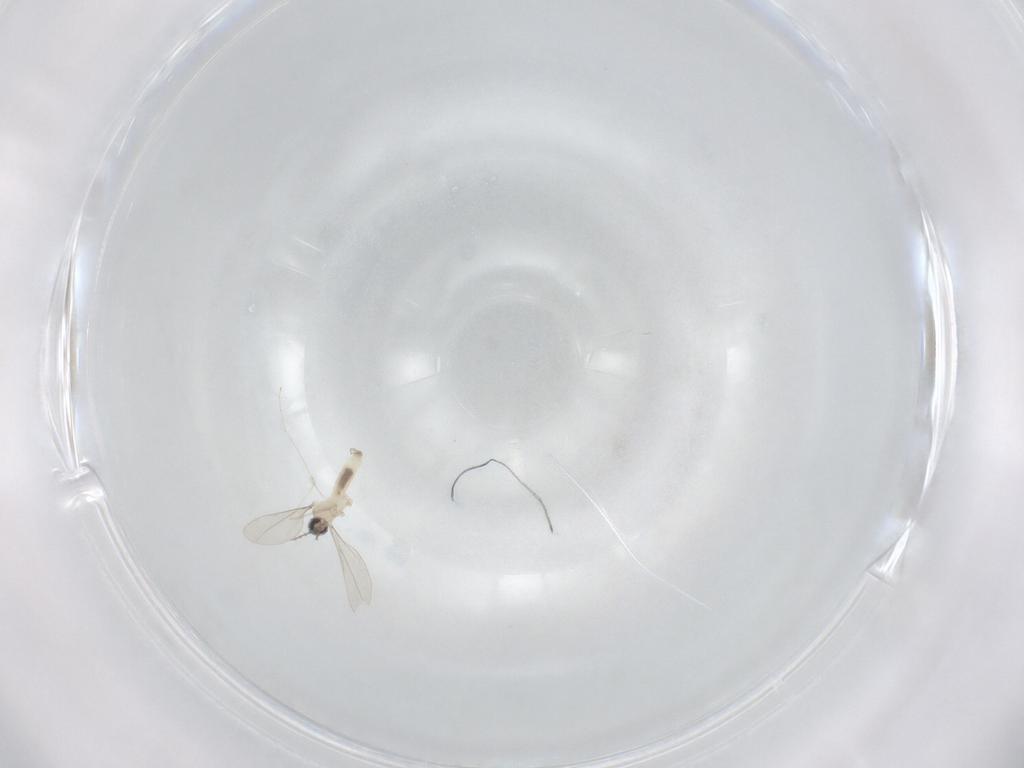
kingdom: Animalia
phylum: Arthropoda
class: Insecta
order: Diptera
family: Cecidomyiidae
